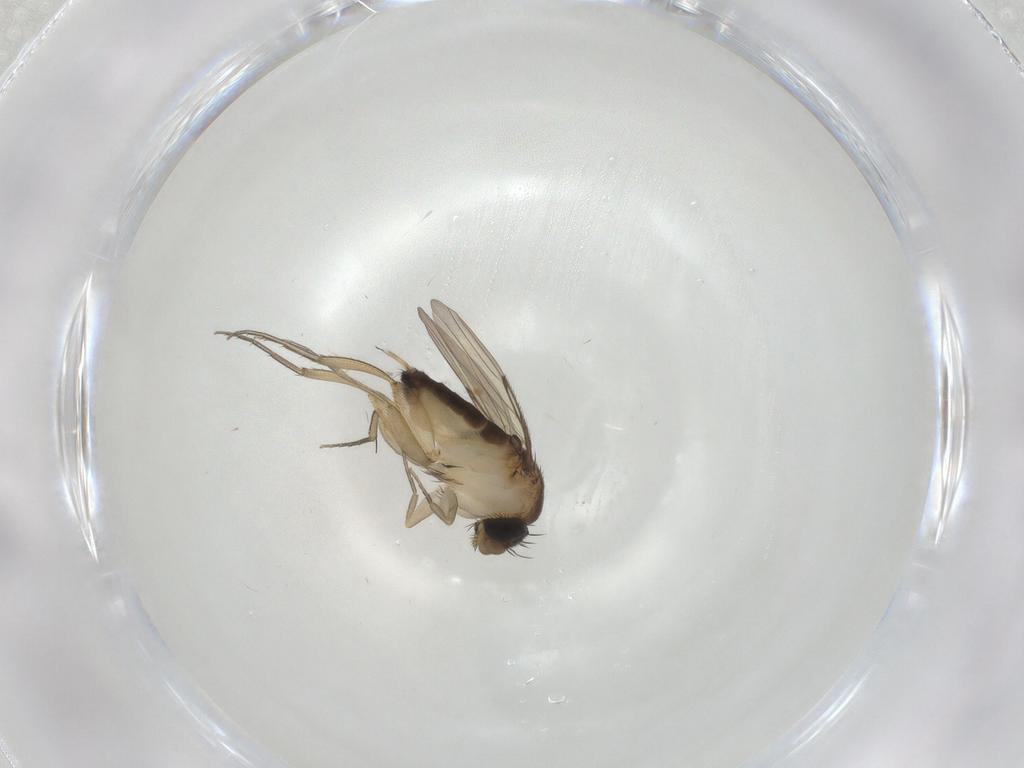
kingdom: Animalia
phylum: Arthropoda
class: Insecta
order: Diptera
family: Phoridae
